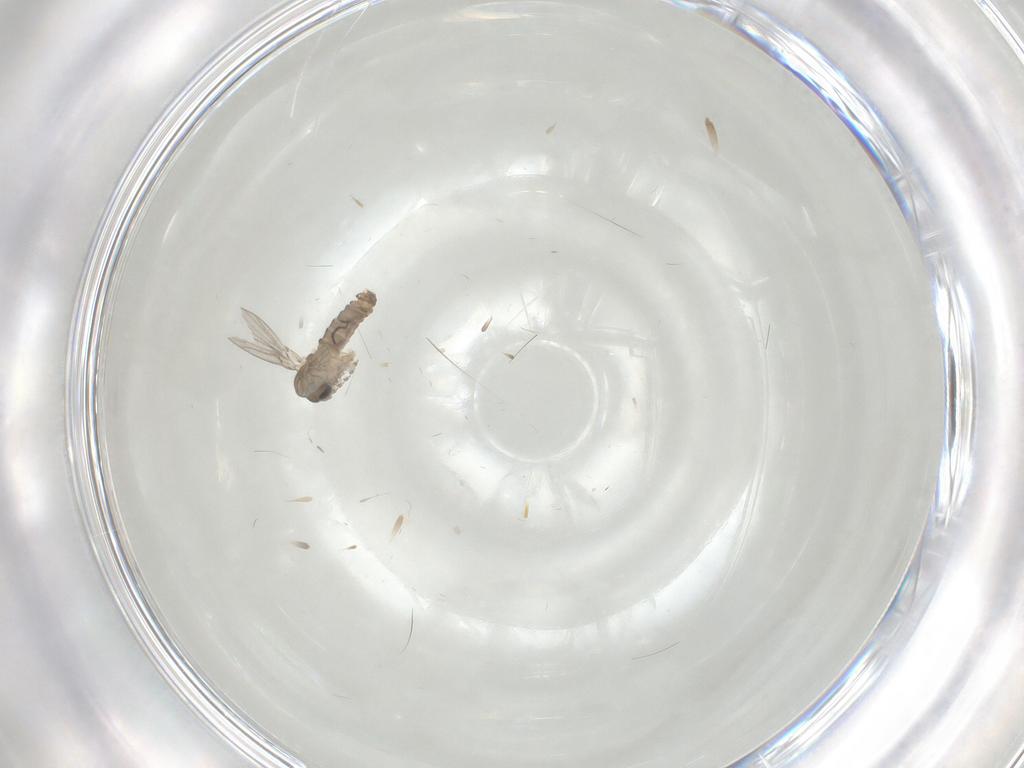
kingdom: Animalia
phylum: Arthropoda
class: Insecta
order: Diptera
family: Psychodidae
